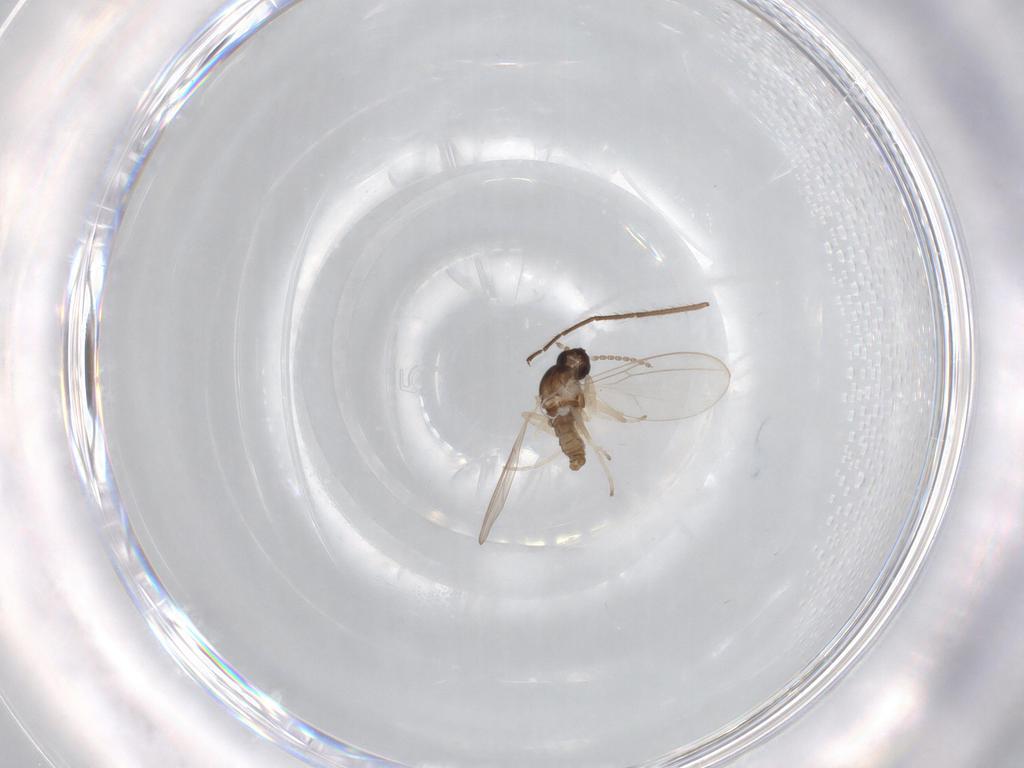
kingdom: Animalia
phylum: Arthropoda
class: Insecta
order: Diptera
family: Cecidomyiidae
